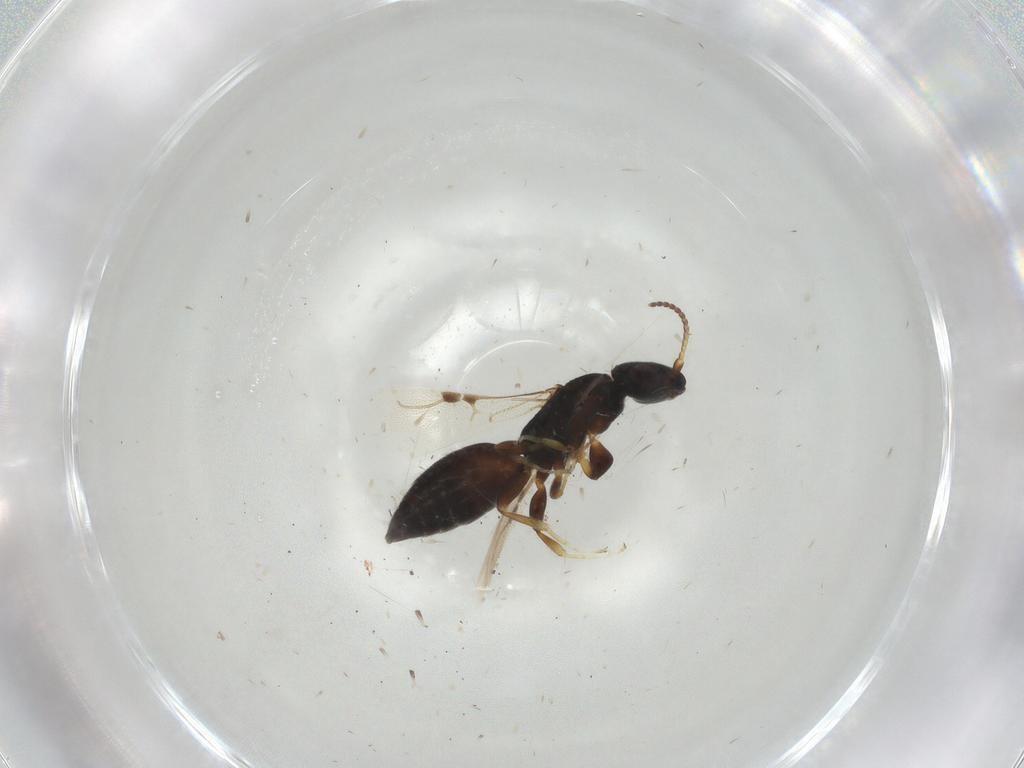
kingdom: Animalia
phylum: Arthropoda
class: Insecta
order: Hymenoptera
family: Bethylidae
